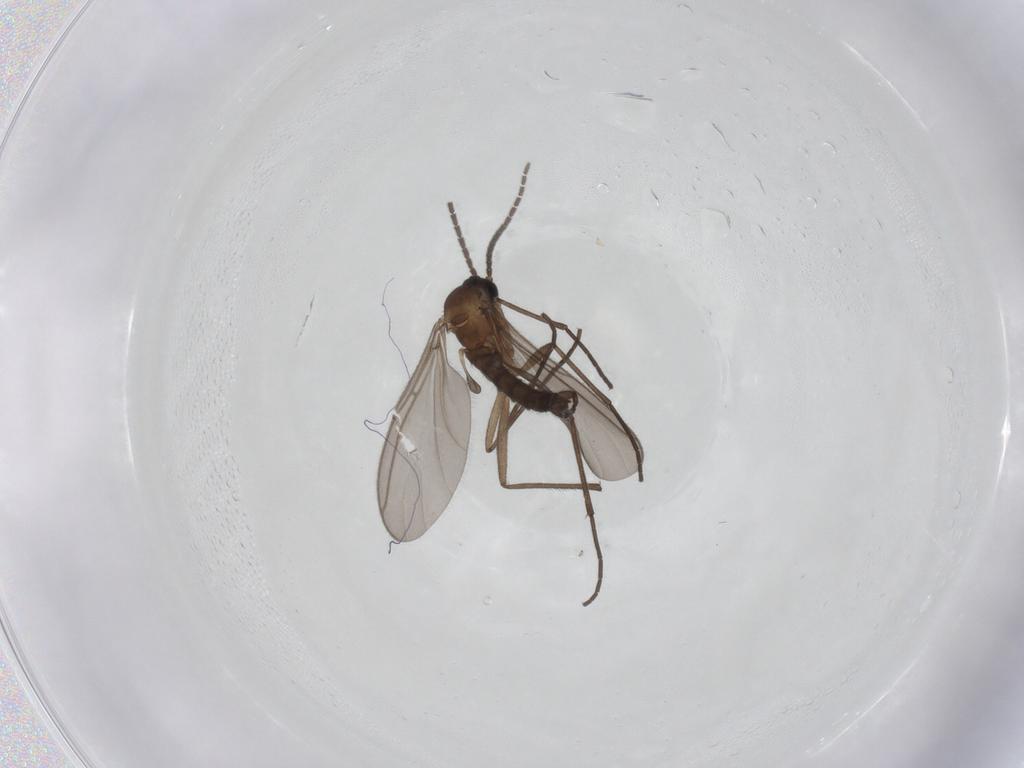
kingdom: Animalia
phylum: Arthropoda
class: Insecta
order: Diptera
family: Sciaridae
